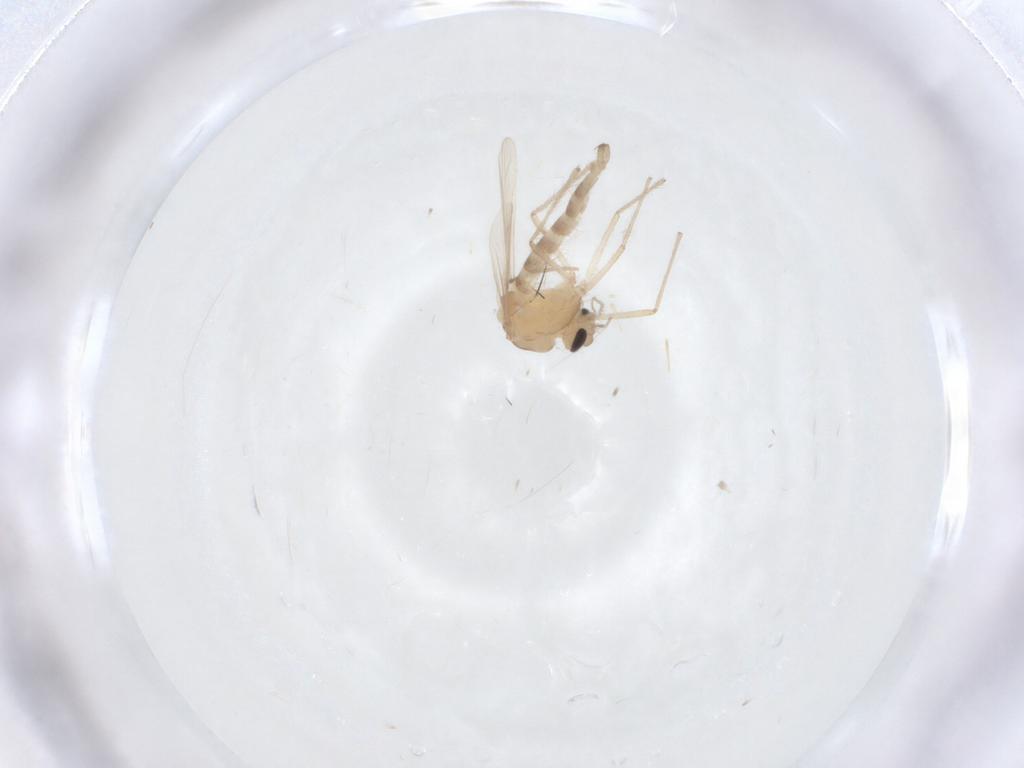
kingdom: Animalia
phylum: Arthropoda
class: Insecta
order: Diptera
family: Chironomidae
